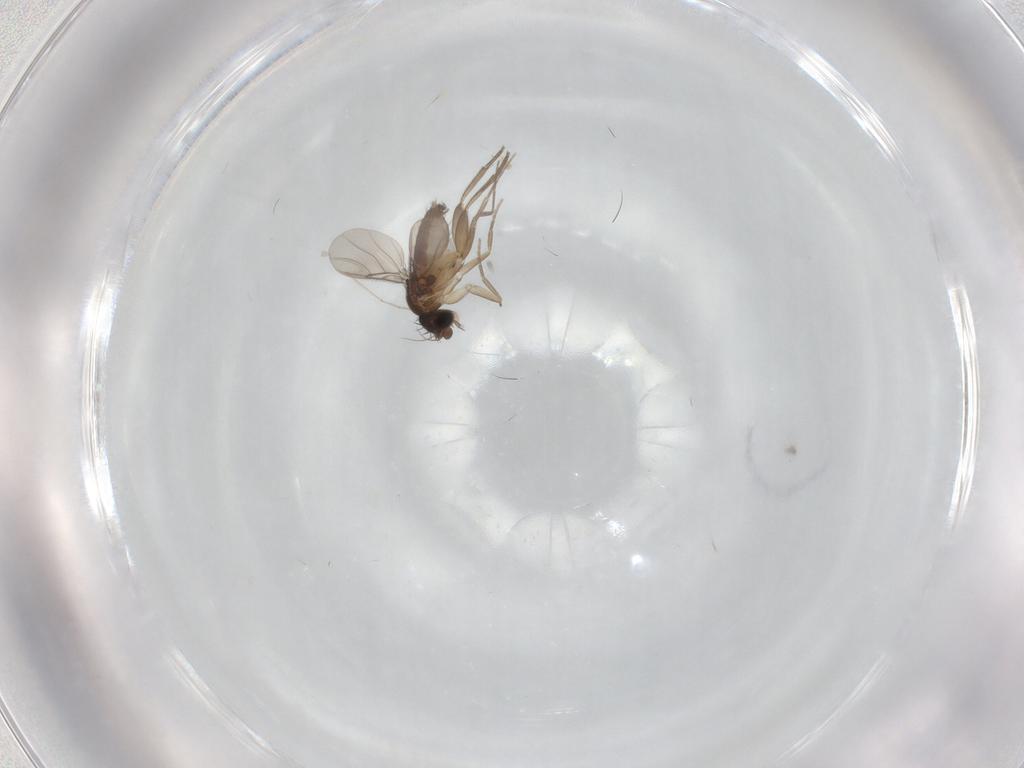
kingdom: Animalia
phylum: Arthropoda
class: Insecta
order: Diptera
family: Phoridae
